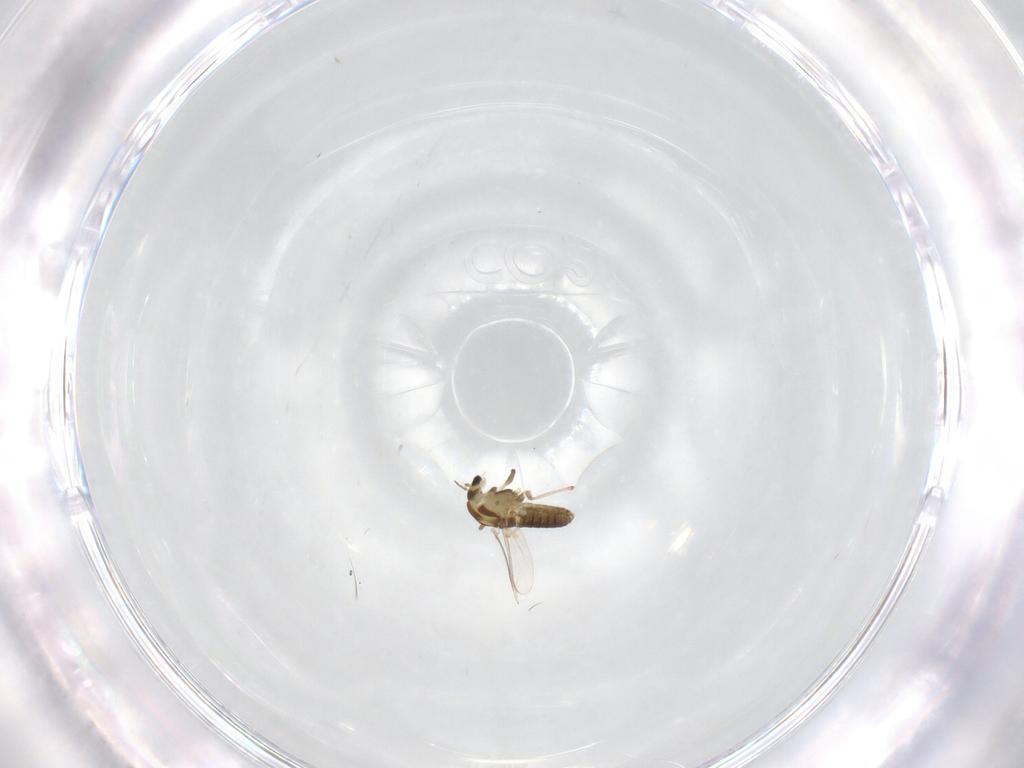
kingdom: Animalia
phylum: Arthropoda
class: Insecta
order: Diptera
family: Chironomidae
